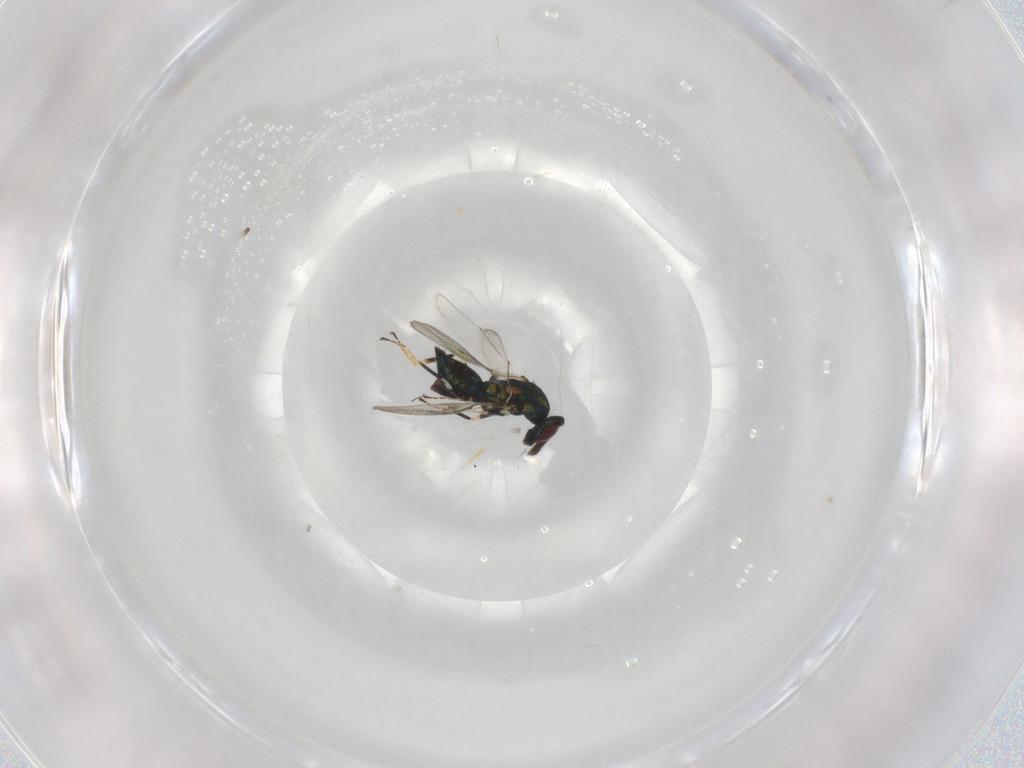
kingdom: Animalia
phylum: Arthropoda
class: Insecta
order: Hymenoptera
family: Eulophidae
